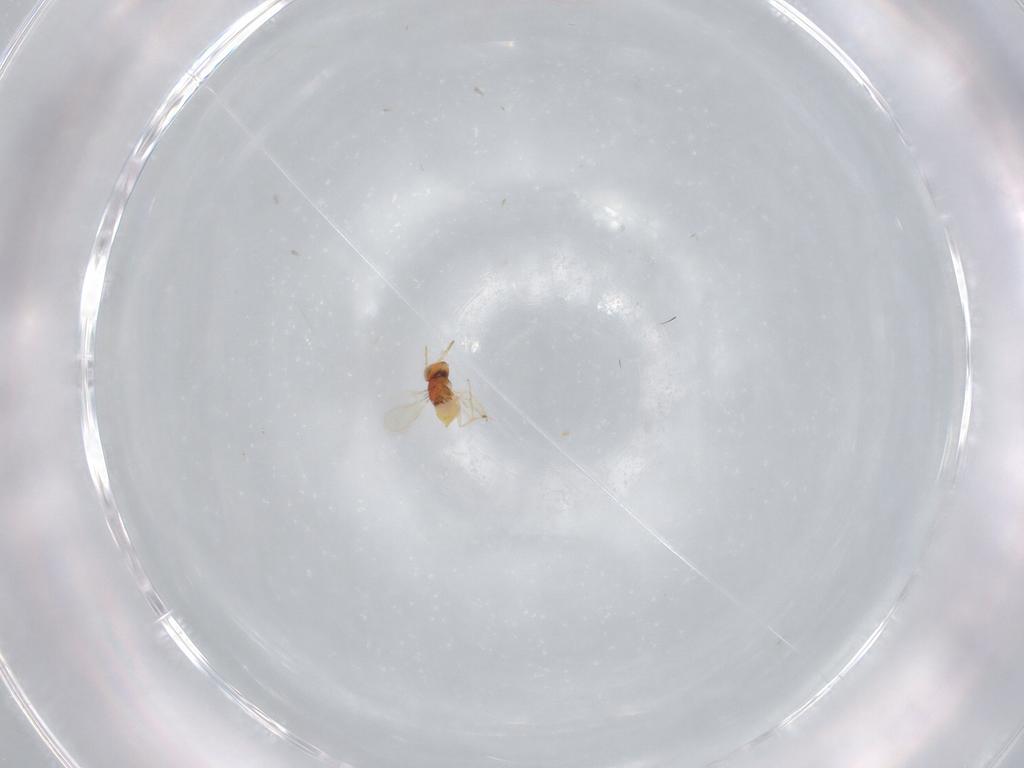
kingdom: Animalia
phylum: Arthropoda
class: Insecta
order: Hymenoptera
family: Aphelinidae
